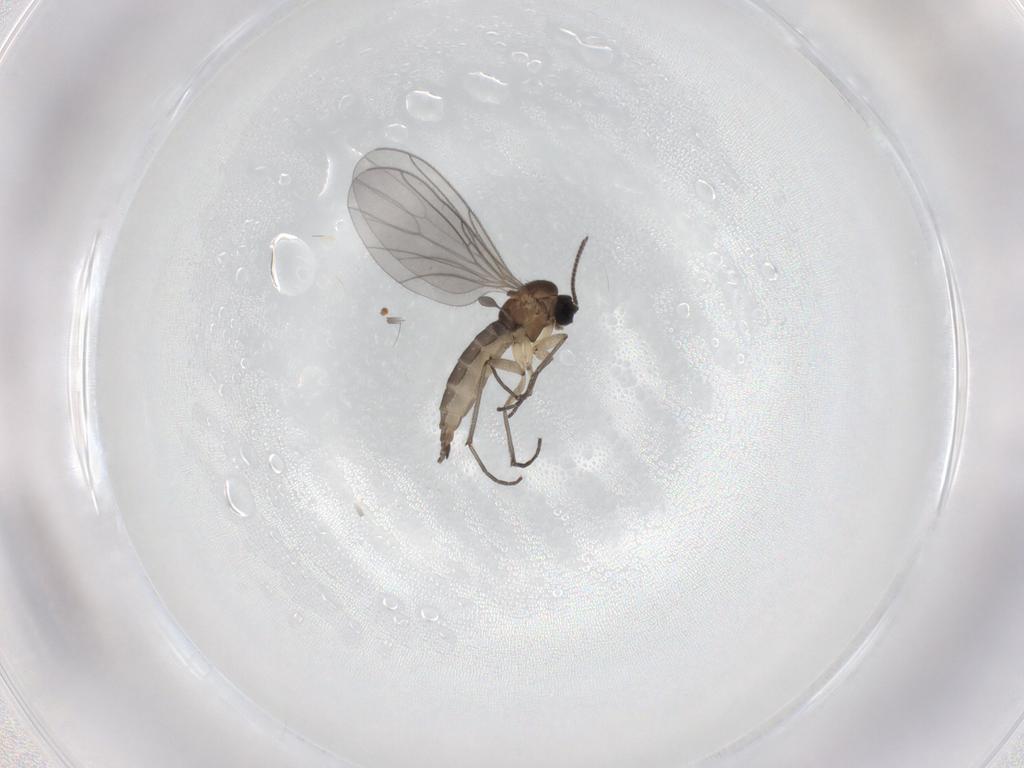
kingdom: Animalia
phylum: Arthropoda
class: Insecta
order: Diptera
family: Sciaridae
